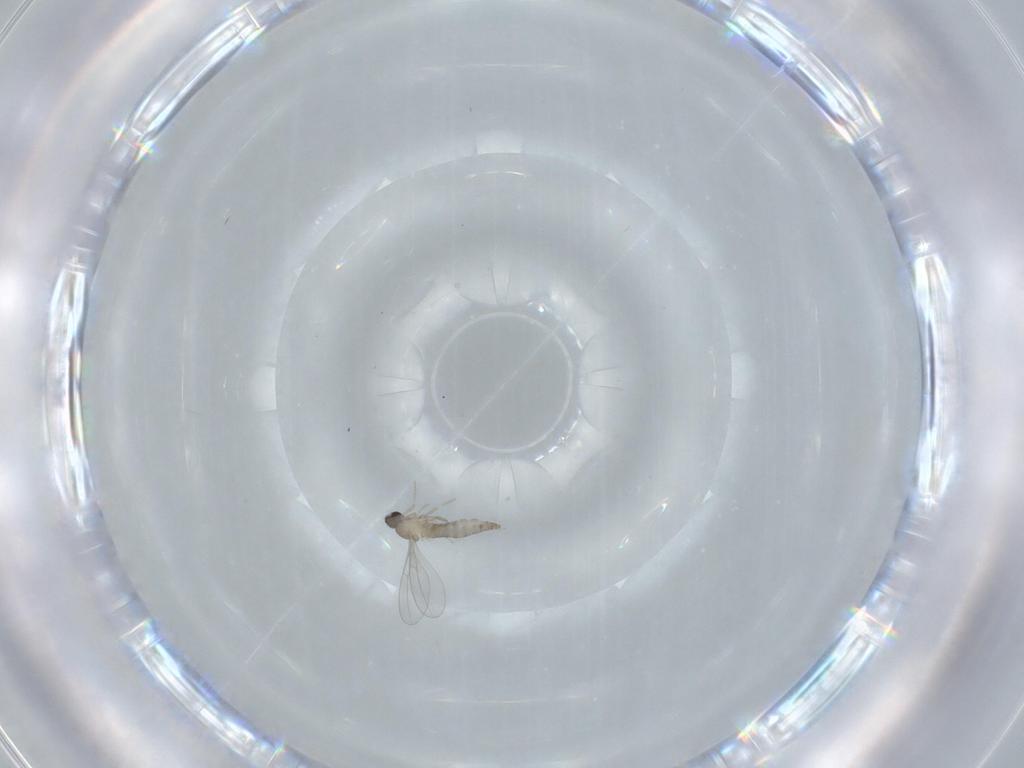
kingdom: Animalia
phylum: Arthropoda
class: Insecta
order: Diptera
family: Cecidomyiidae
